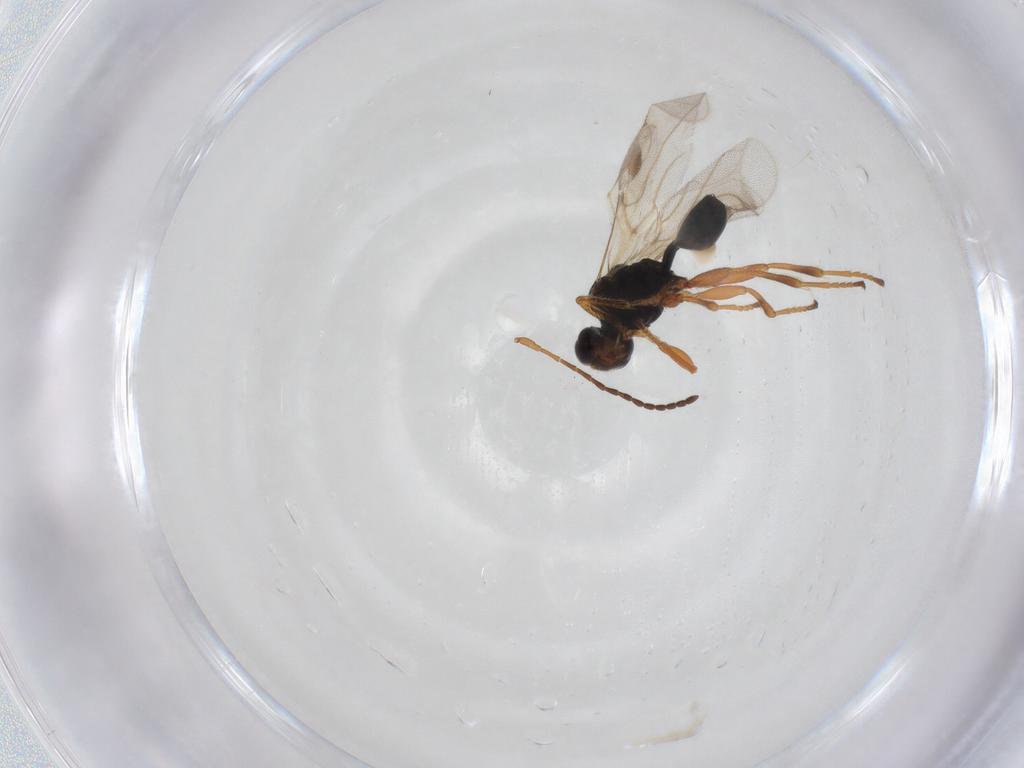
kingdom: Animalia
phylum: Arthropoda
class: Insecta
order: Hymenoptera
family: Braconidae
